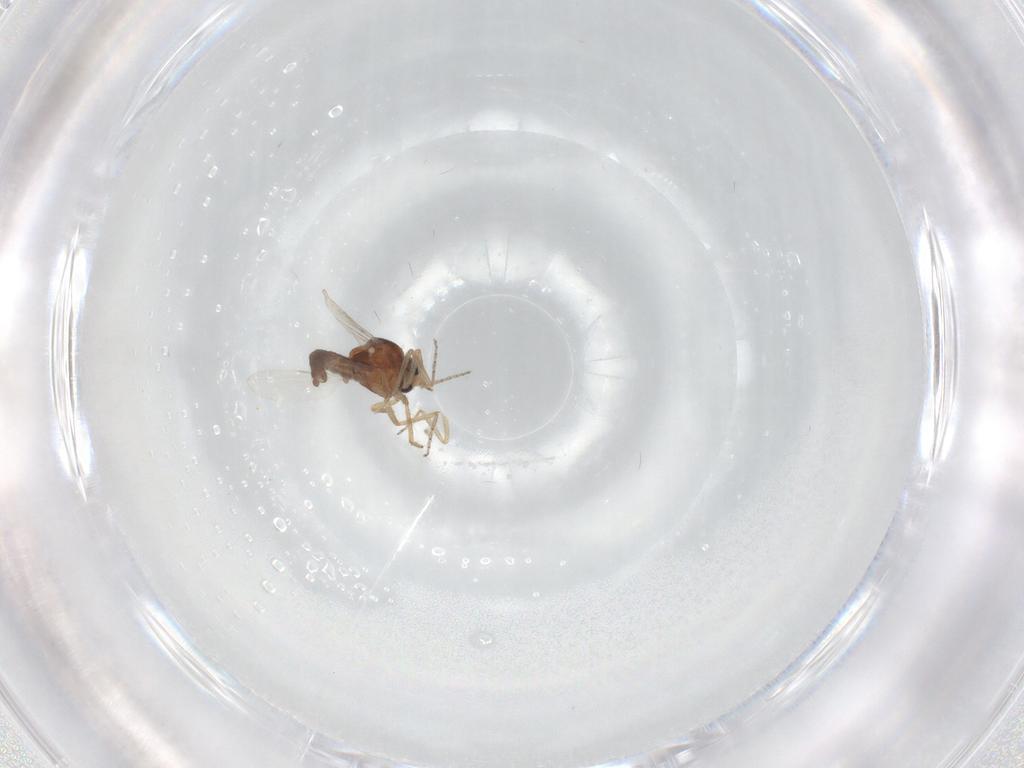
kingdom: Animalia
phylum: Arthropoda
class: Insecta
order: Diptera
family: Ceratopogonidae
